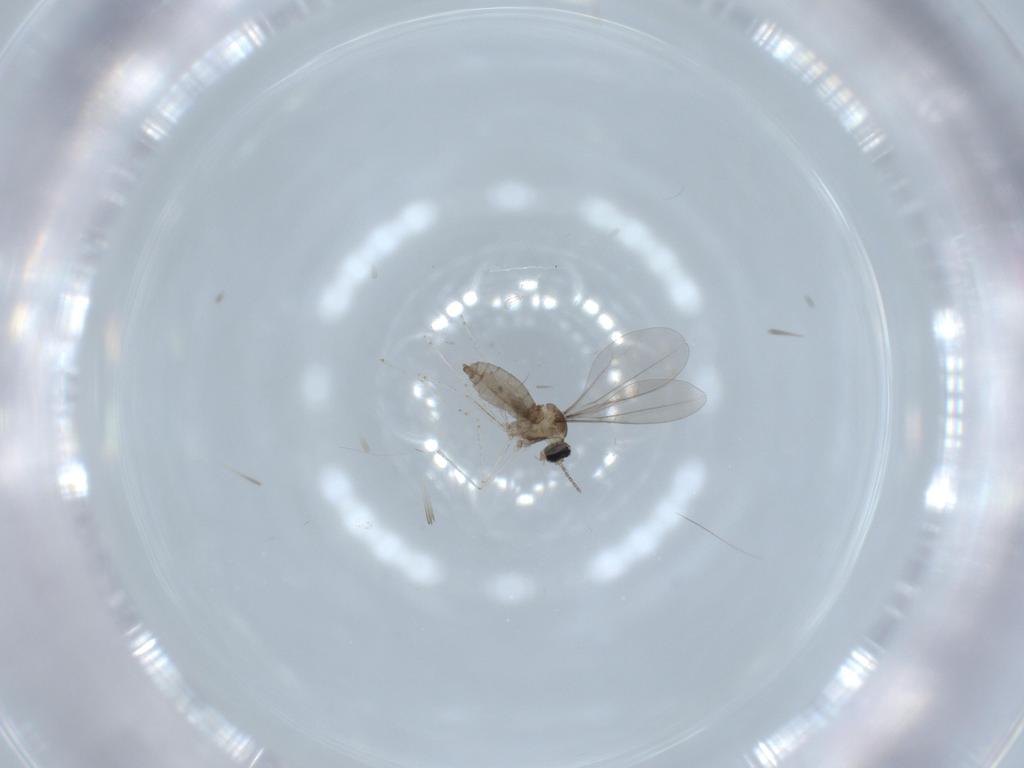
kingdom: Animalia
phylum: Arthropoda
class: Insecta
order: Diptera
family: Cecidomyiidae
